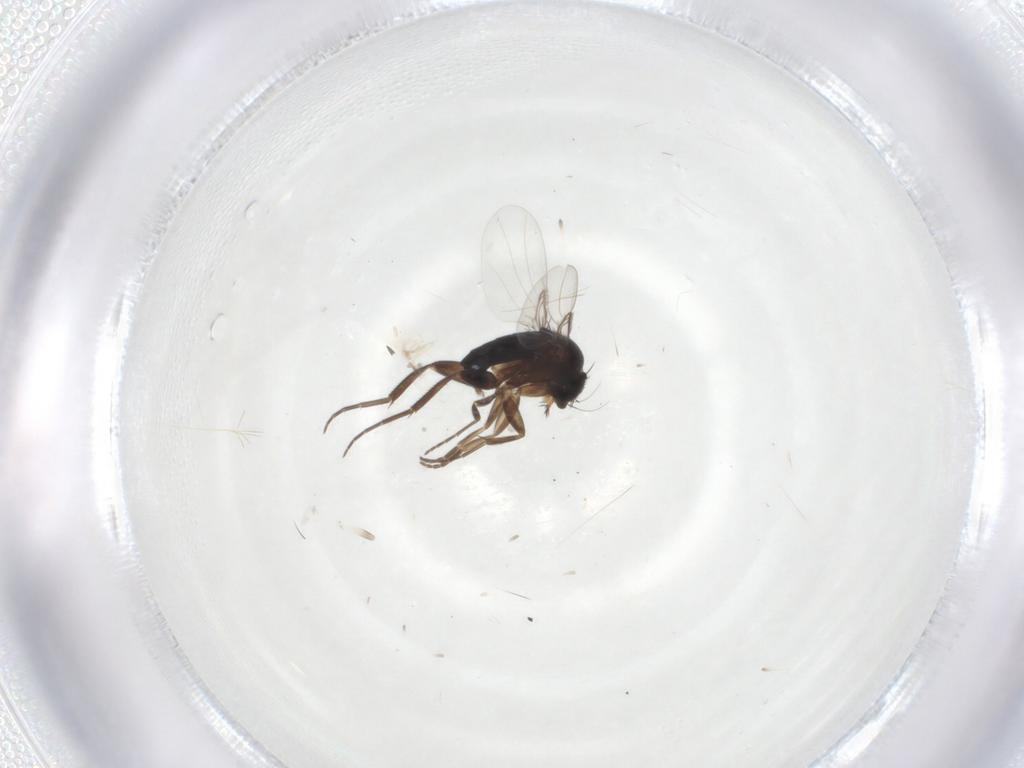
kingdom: Animalia
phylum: Arthropoda
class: Insecta
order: Diptera
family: Phoridae
